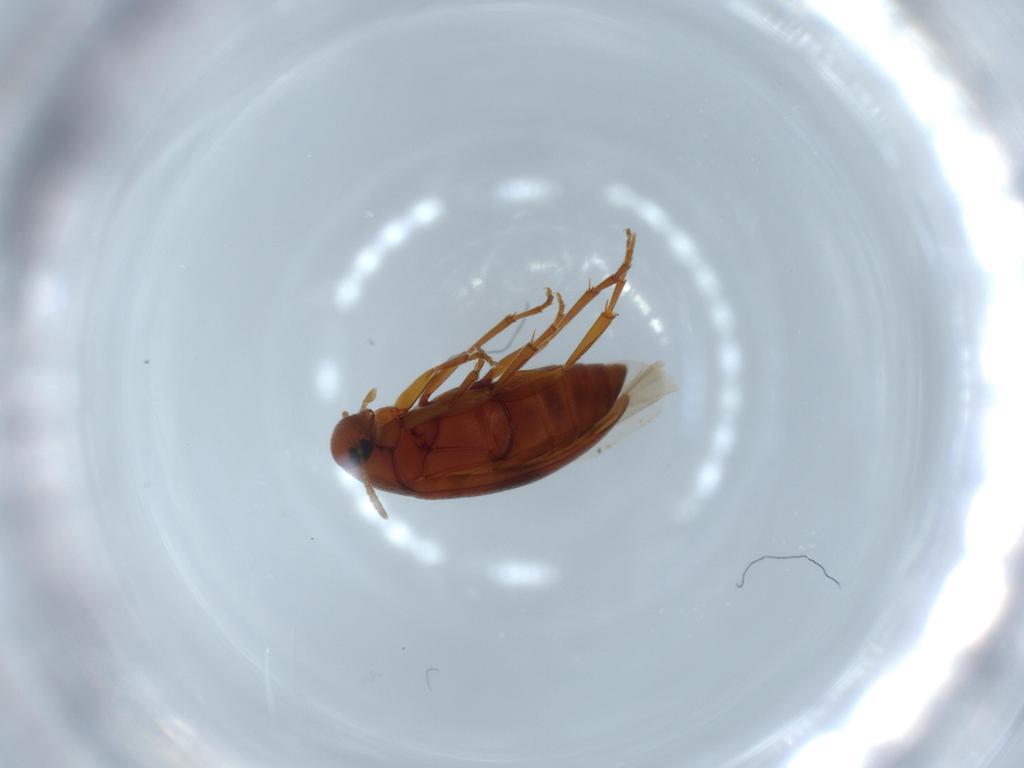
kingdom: Animalia
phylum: Arthropoda
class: Insecta
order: Coleoptera
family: Scraptiidae
